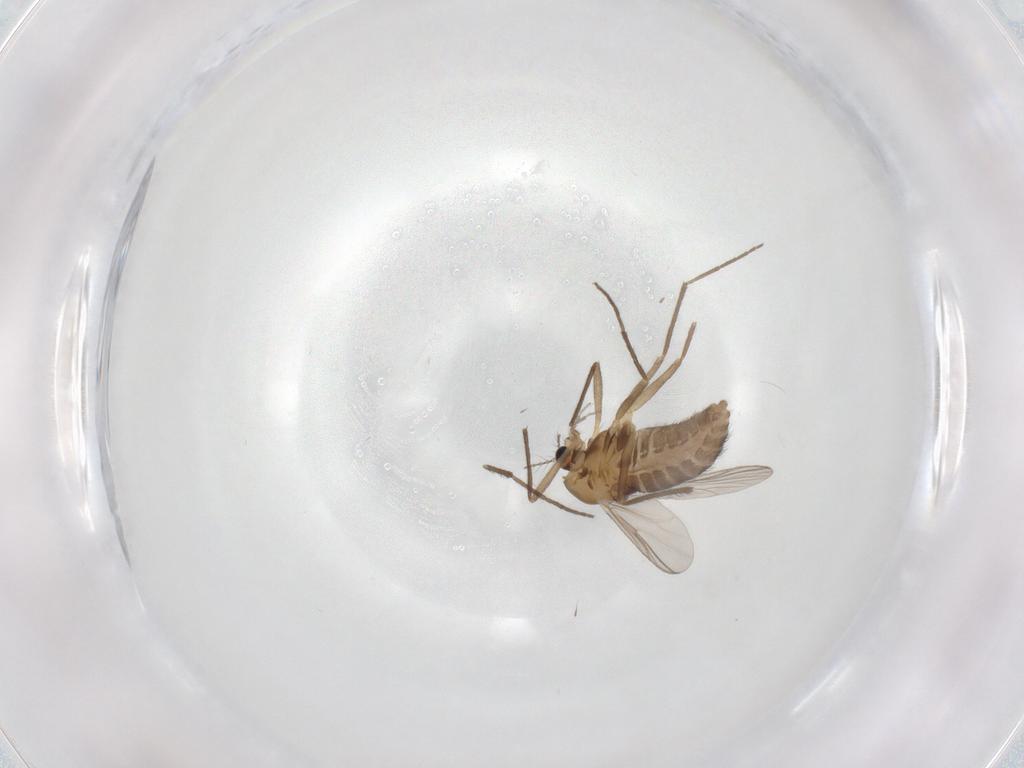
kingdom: Animalia
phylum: Arthropoda
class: Insecta
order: Diptera
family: Chironomidae
